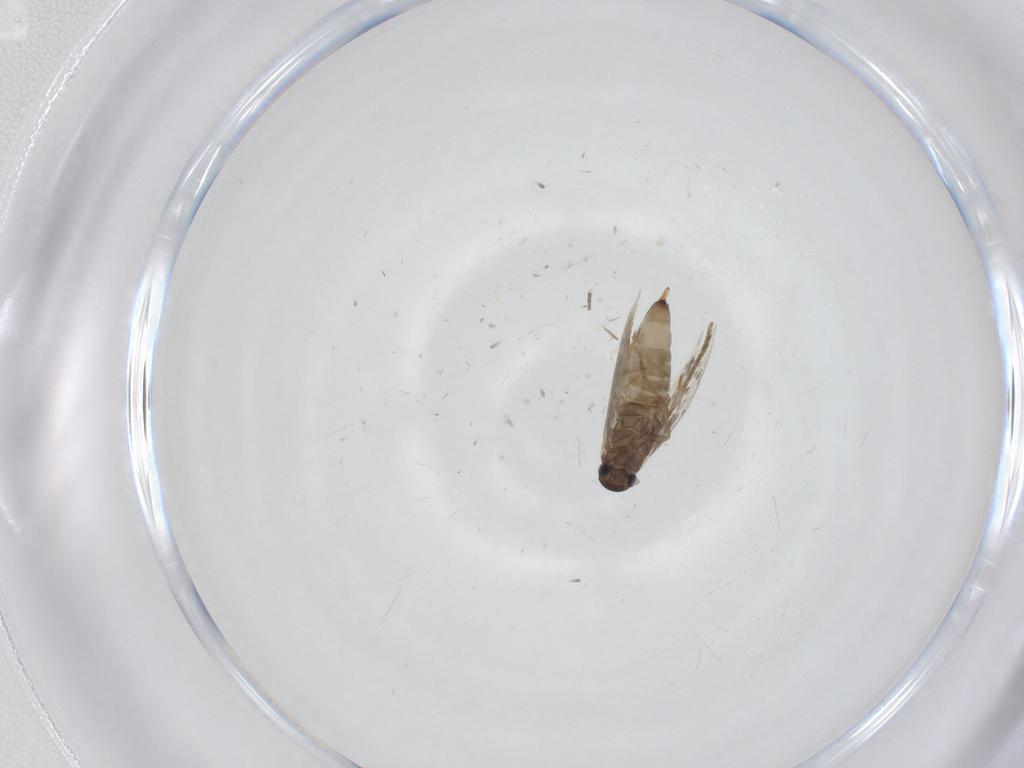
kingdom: Animalia
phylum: Arthropoda
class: Insecta
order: Lepidoptera
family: Heliozelidae
